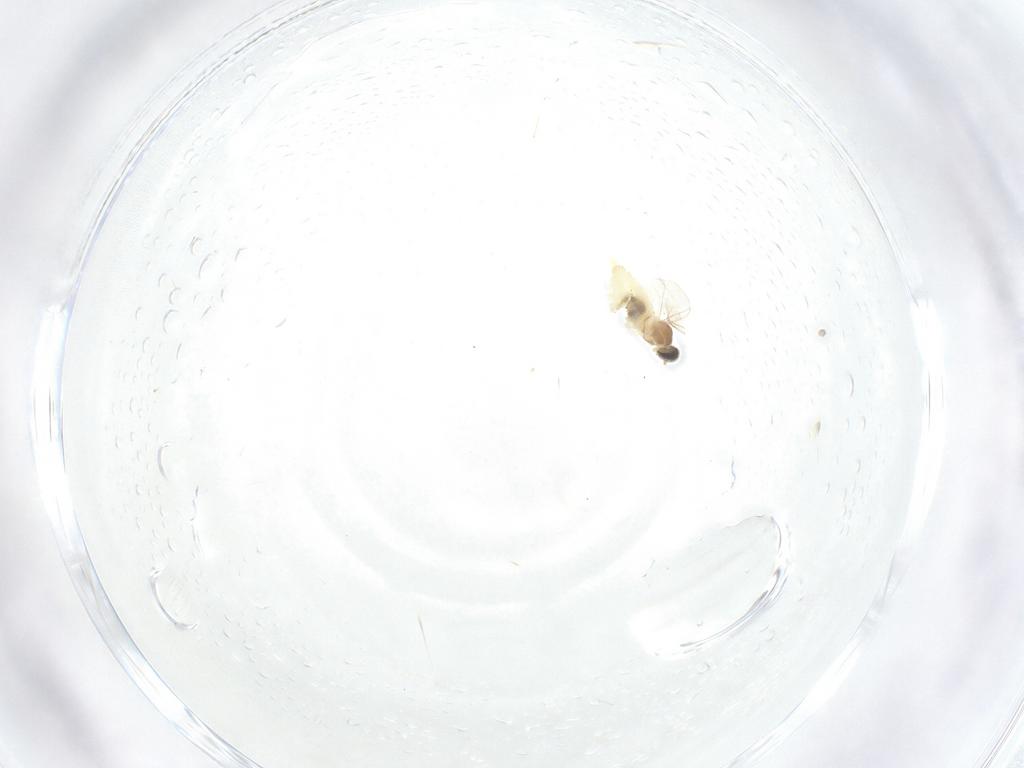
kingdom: Animalia
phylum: Arthropoda
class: Insecta
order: Diptera
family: Cecidomyiidae
